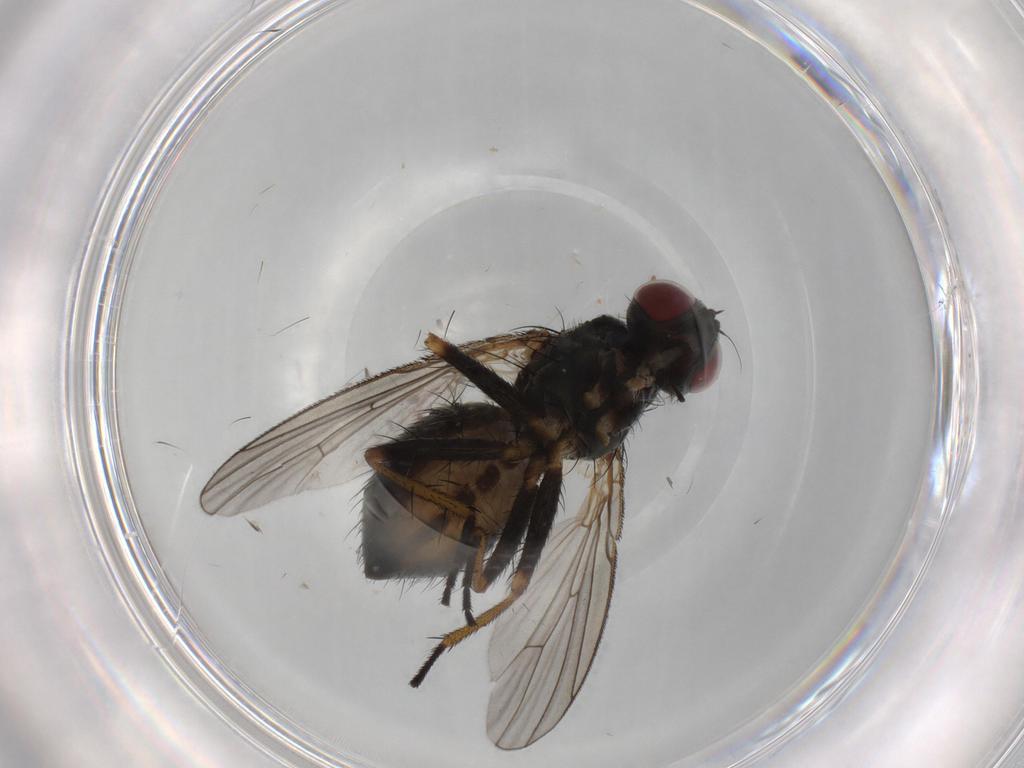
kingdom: Animalia
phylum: Arthropoda
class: Insecta
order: Diptera
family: Muscidae
